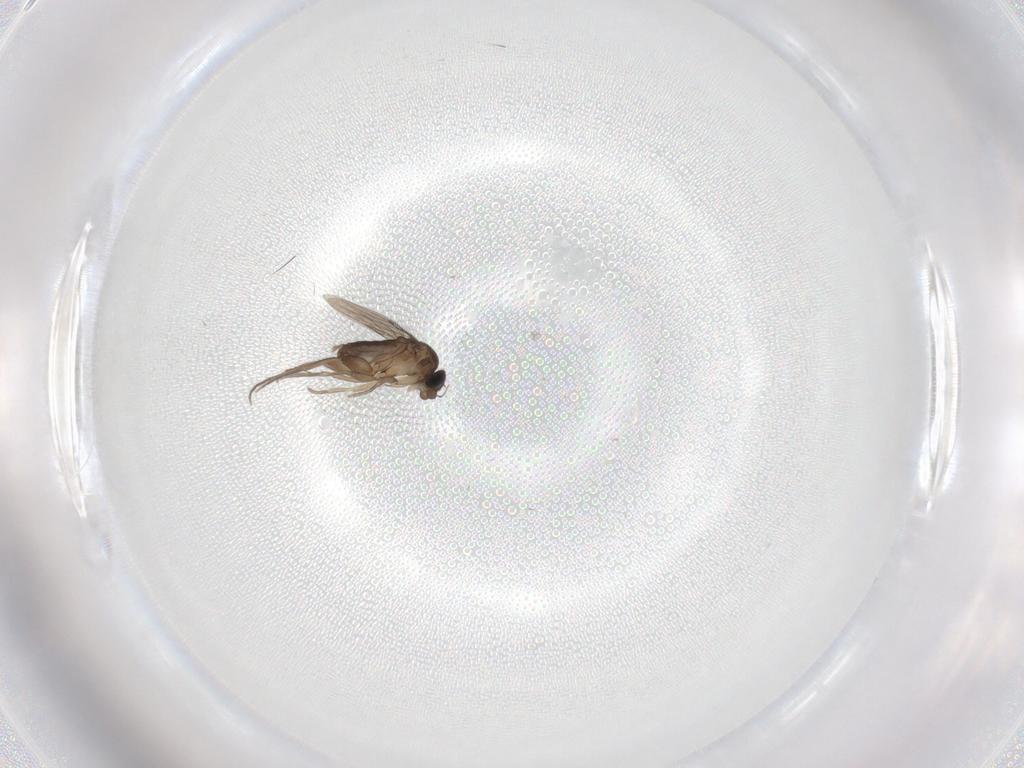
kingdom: Animalia
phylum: Arthropoda
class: Insecta
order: Diptera
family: Phoridae
